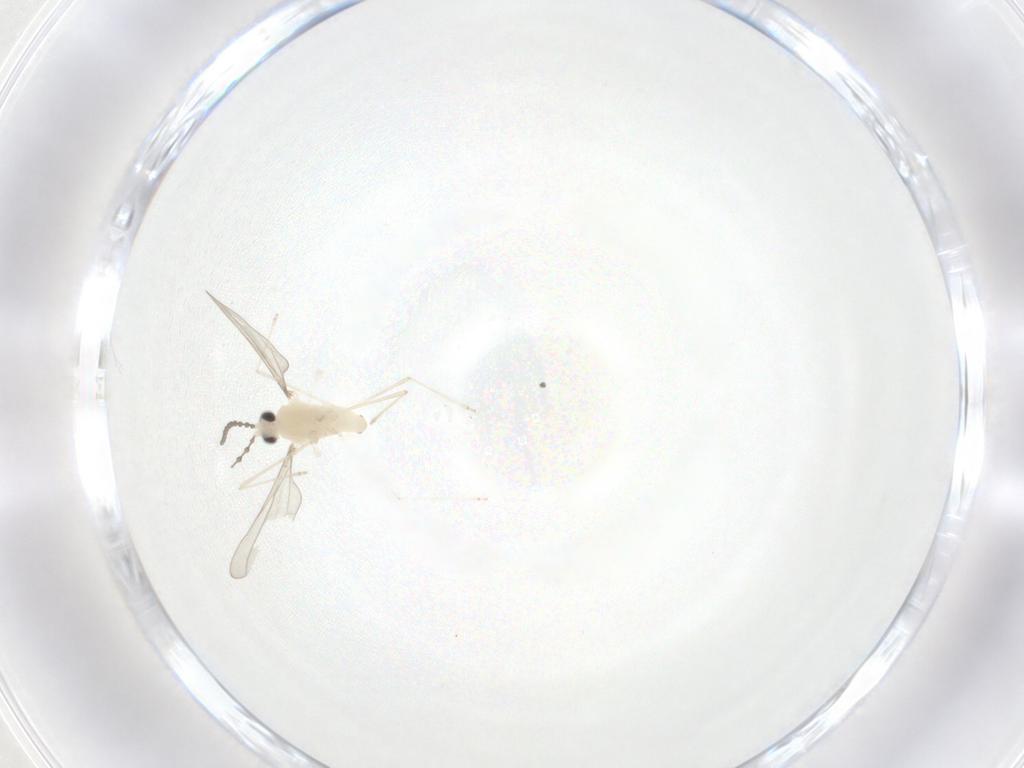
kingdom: Animalia
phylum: Arthropoda
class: Insecta
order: Diptera
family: Cecidomyiidae
